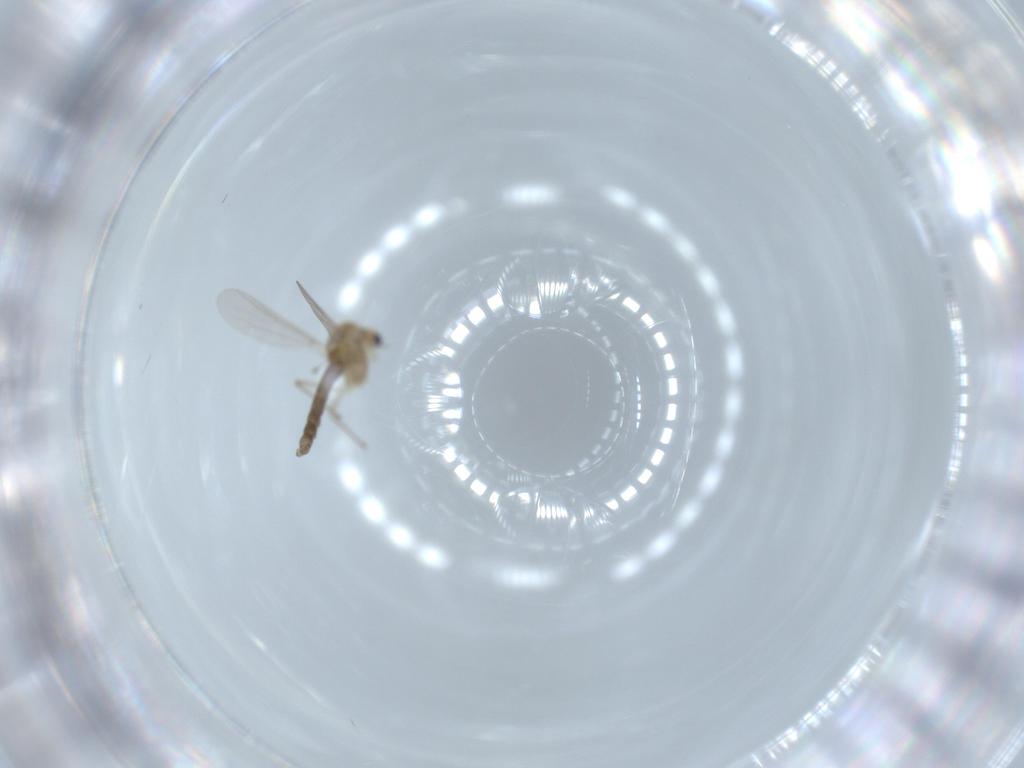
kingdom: Animalia
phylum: Arthropoda
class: Insecta
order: Diptera
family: Chironomidae
